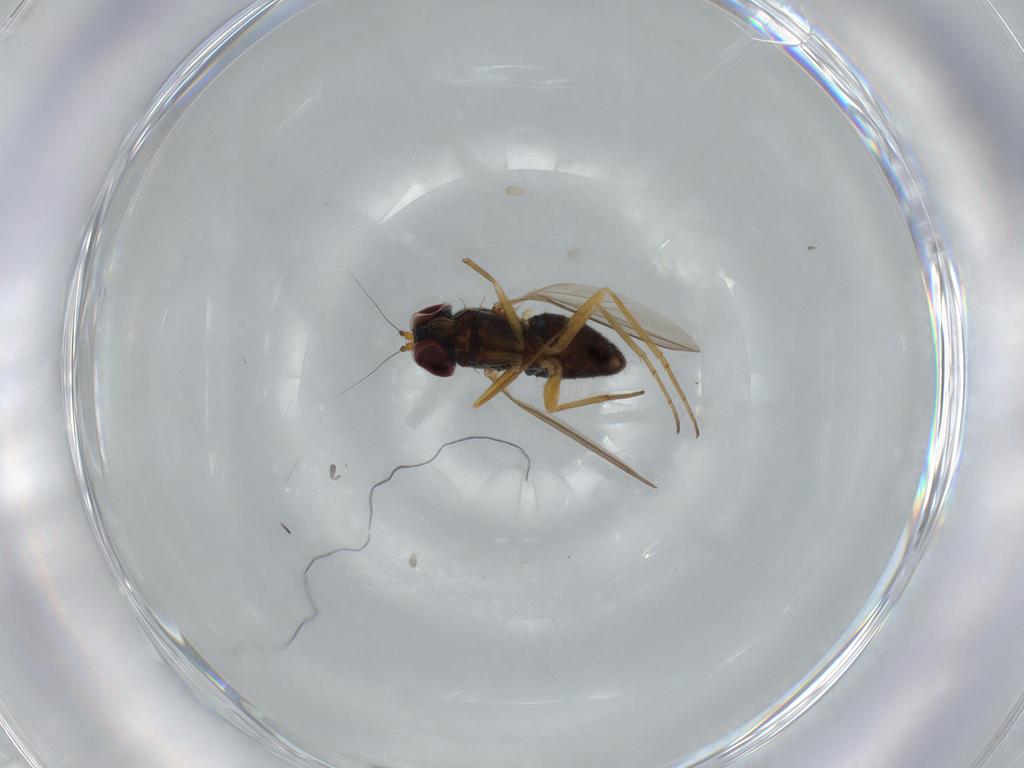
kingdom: Animalia
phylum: Arthropoda
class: Insecta
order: Diptera
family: Dolichopodidae
